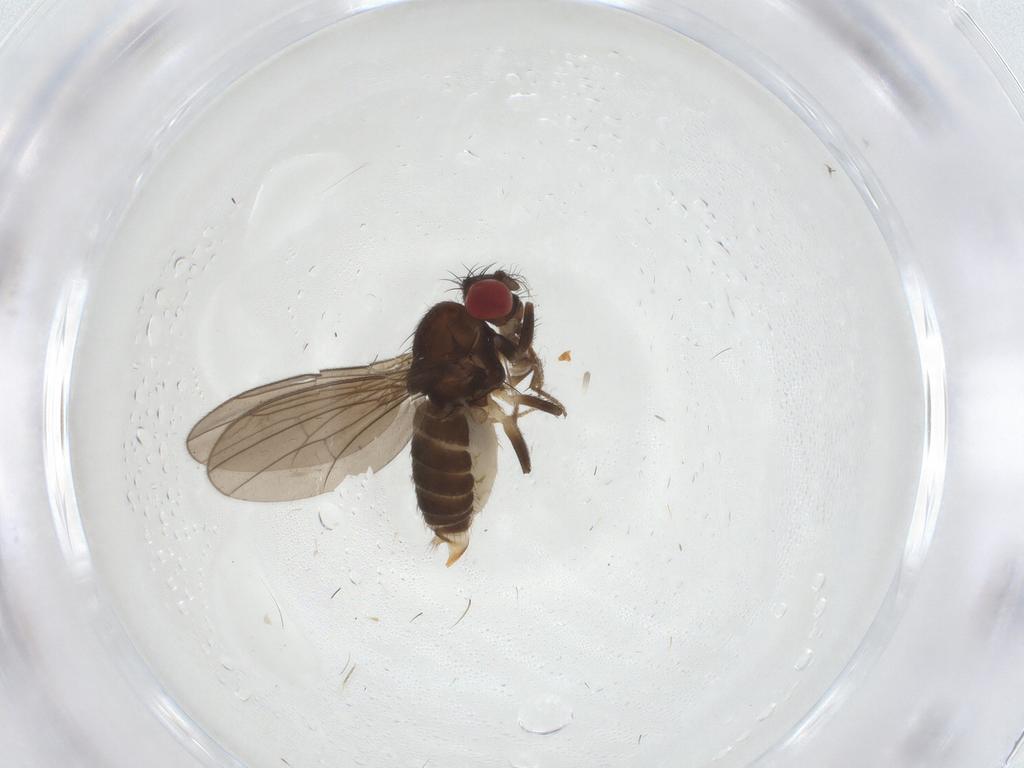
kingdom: Animalia
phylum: Arthropoda
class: Insecta
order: Diptera
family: Drosophilidae
